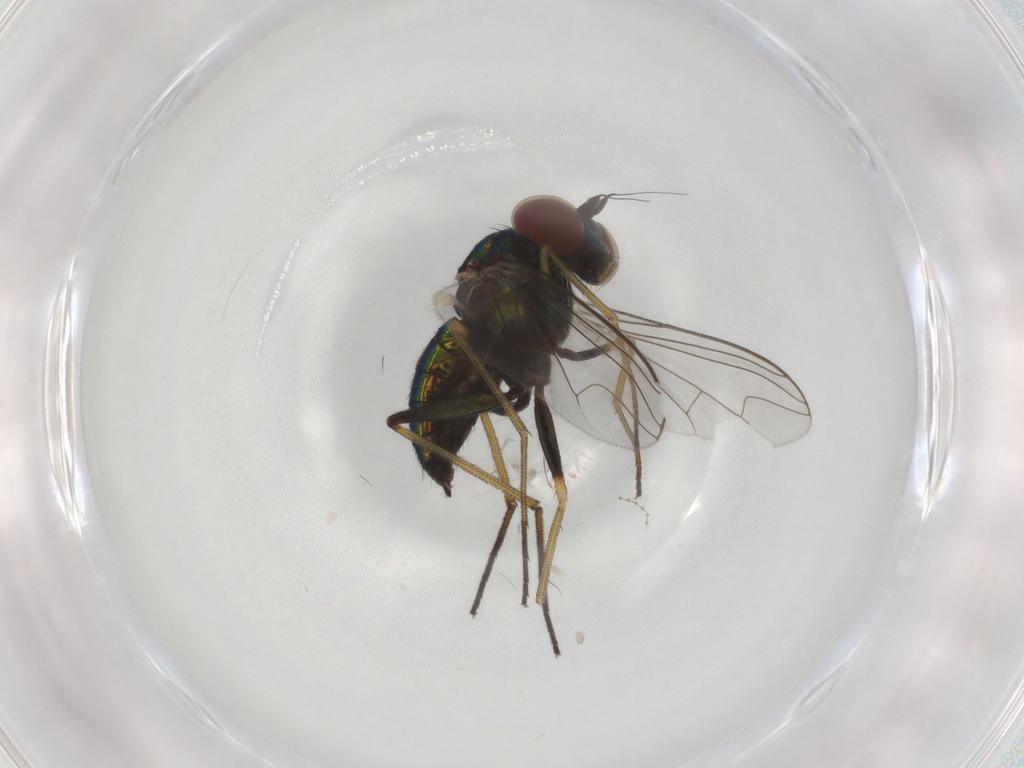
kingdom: Animalia
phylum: Arthropoda
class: Insecta
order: Diptera
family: Dolichopodidae
